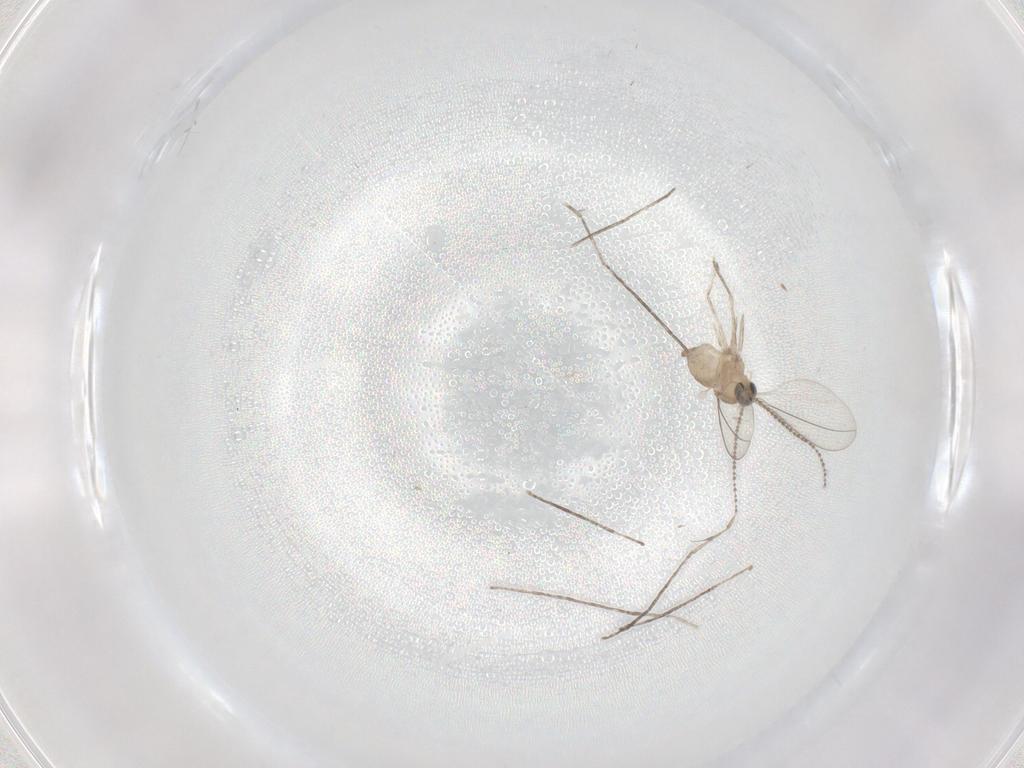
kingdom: Animalia
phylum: Arthropoda
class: Insecta
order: Diptera
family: Cecidomyiidae
